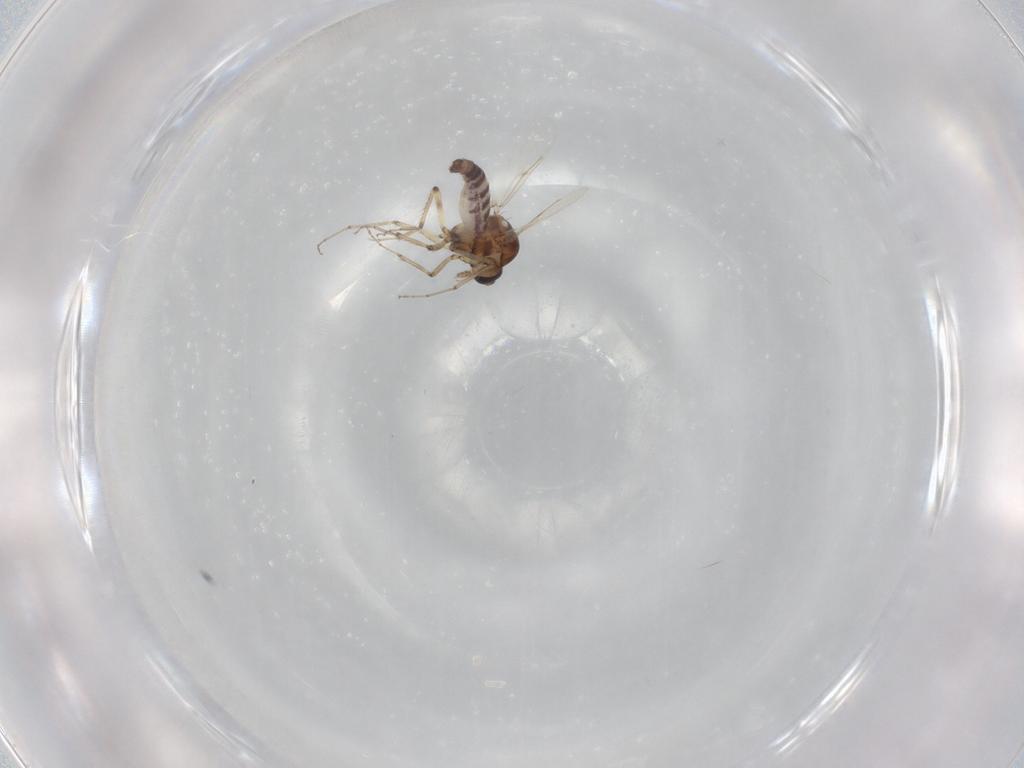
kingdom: Animalia
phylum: Arthropoda
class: Insecta
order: Diptera
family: Ceratopogonidae
